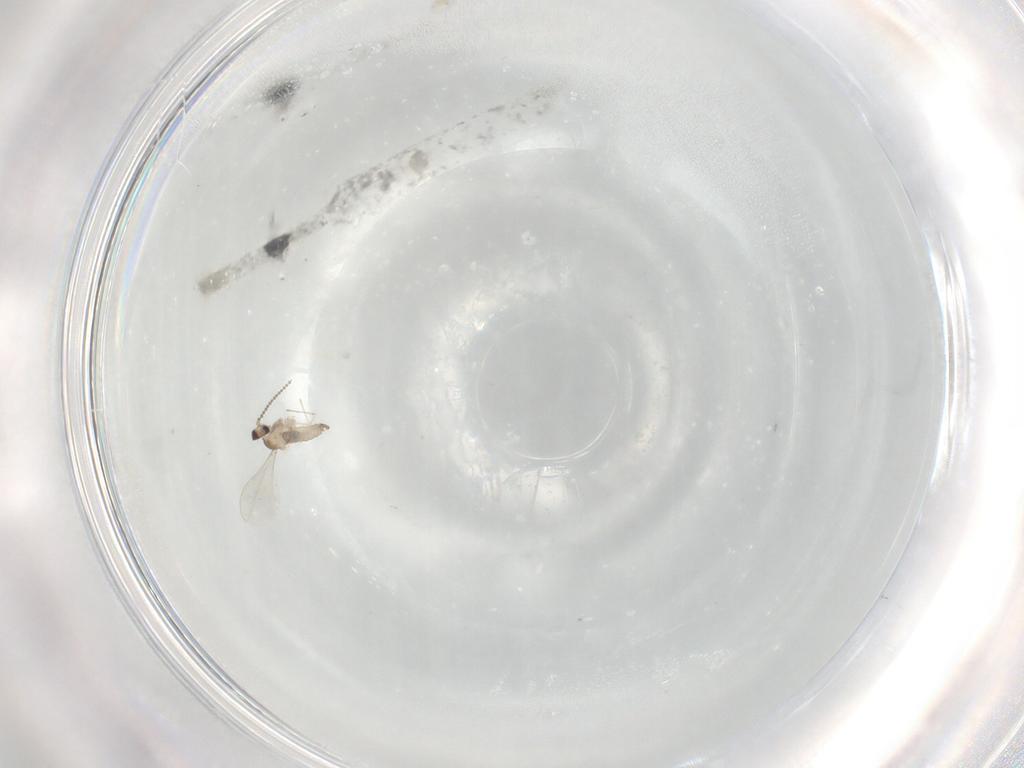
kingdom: Animalia
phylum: Arthropoda
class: Insecta
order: Diptera
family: Cecidomyiidae
